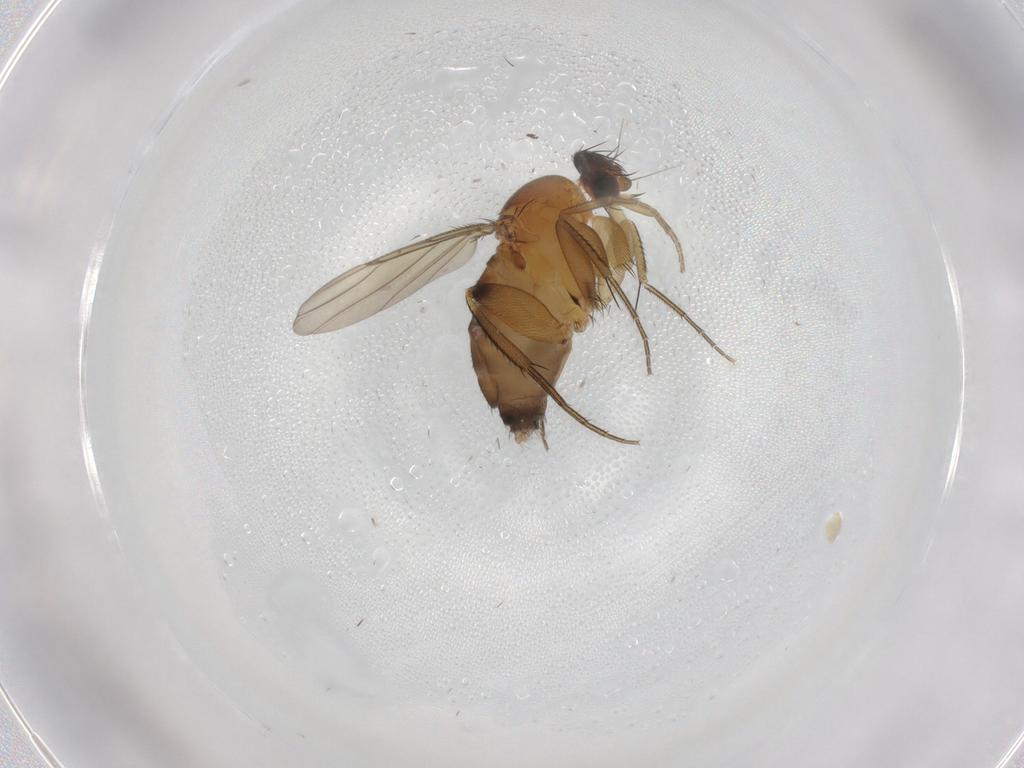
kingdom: Animalia
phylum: Arthropoda
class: Insecta
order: Diptera
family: Phoridae
